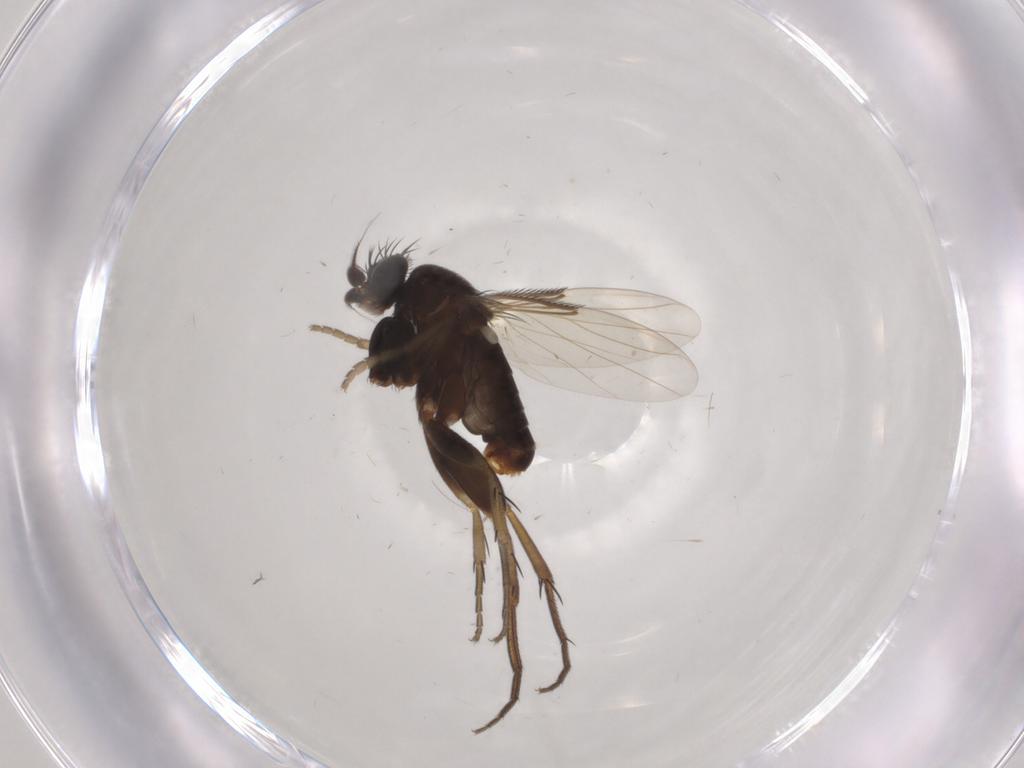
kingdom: Animalia
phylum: Arthropoda
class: Insecta
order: Diptera
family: Phoridae
